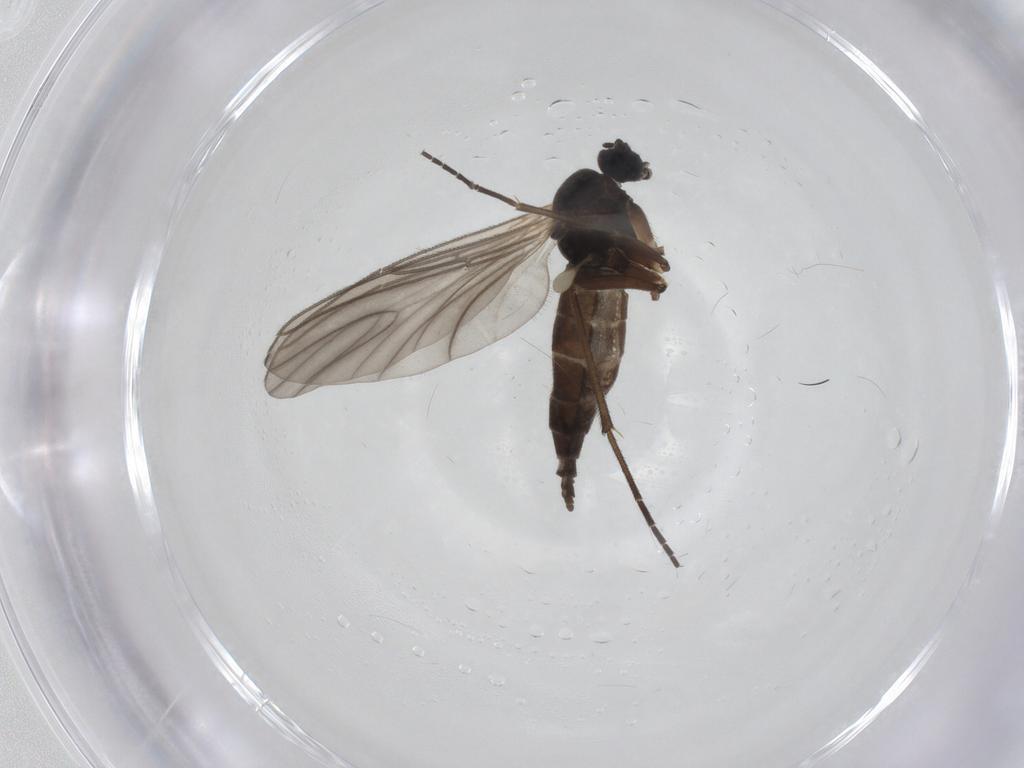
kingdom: Animalia
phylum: Arthropoda
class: Insecta
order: Diptera
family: Sciaridae
